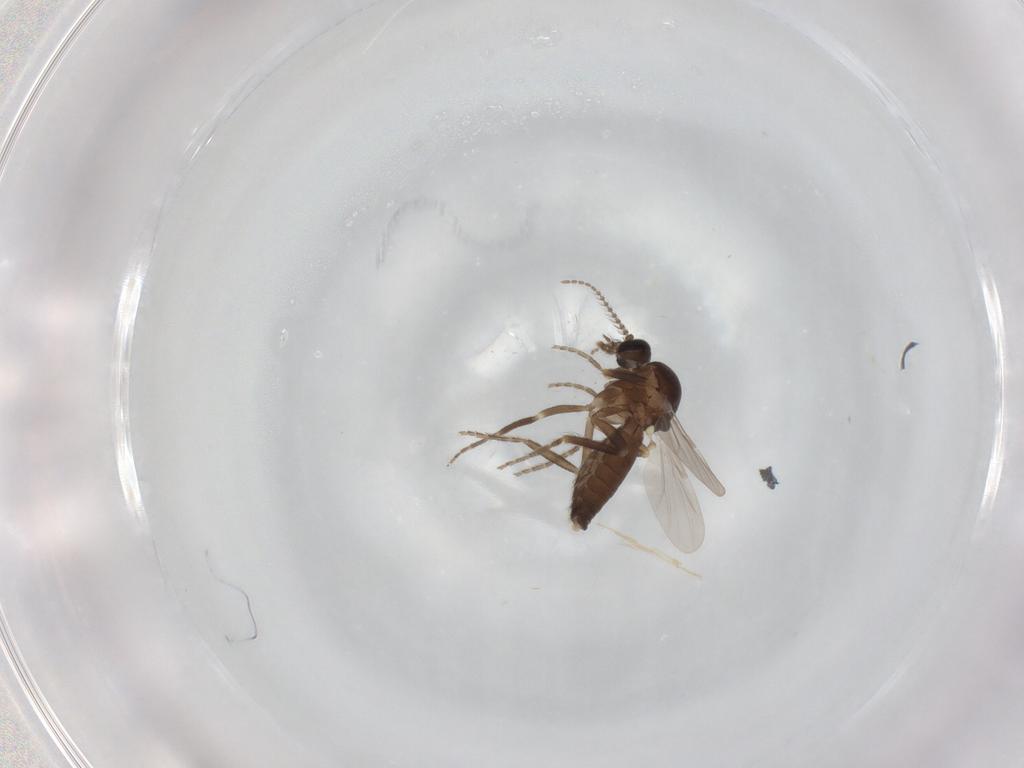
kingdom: Animalia
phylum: Arthropoda
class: Insecta
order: Diptera
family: Ceratopogonidae
